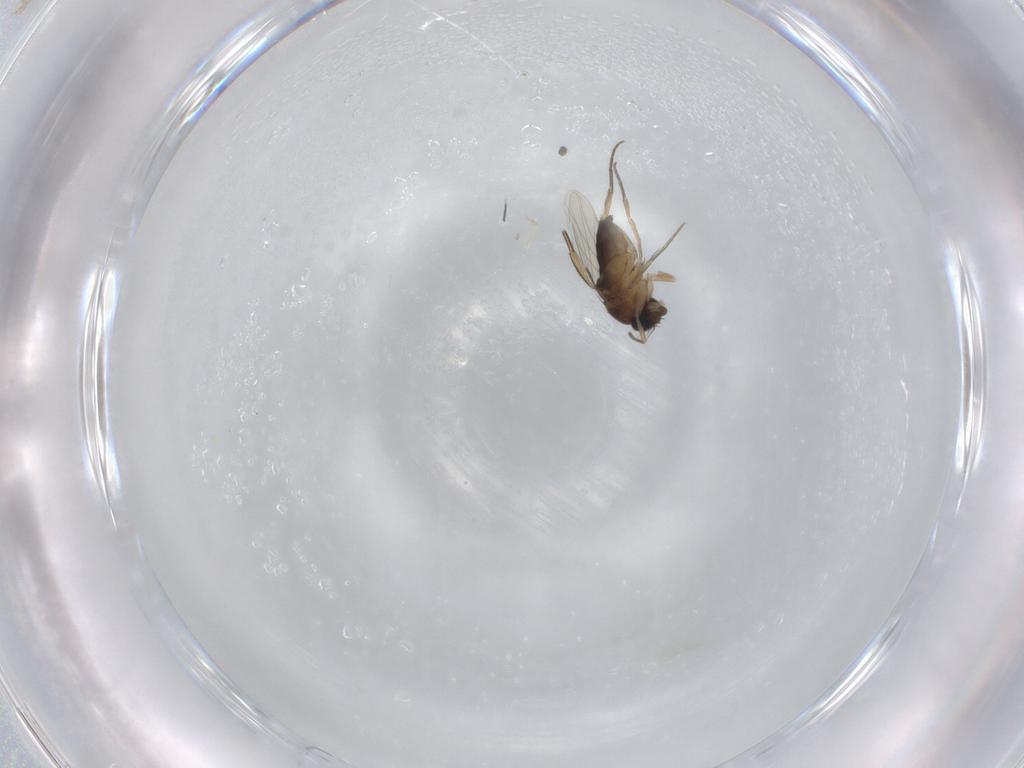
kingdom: Animalia
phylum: Arthropoda
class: Insecta
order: Diptera
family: Phoridae
